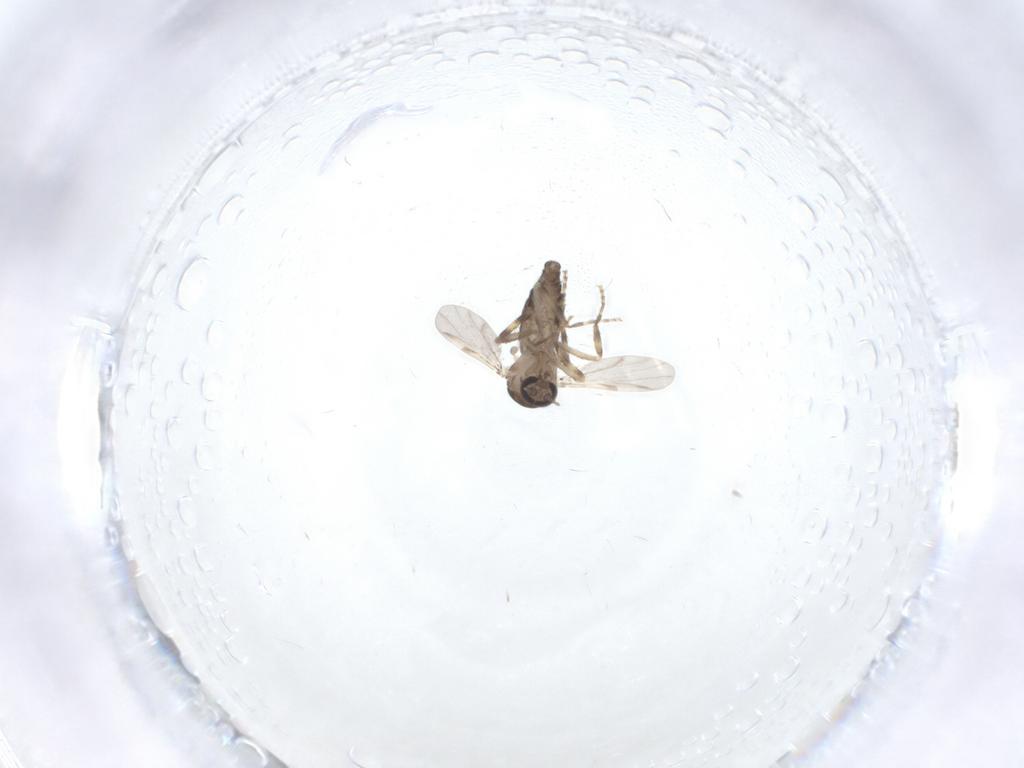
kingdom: Animalia
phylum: Arthropoda
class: Insecta
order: Diptera
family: Ceratopogonidae
